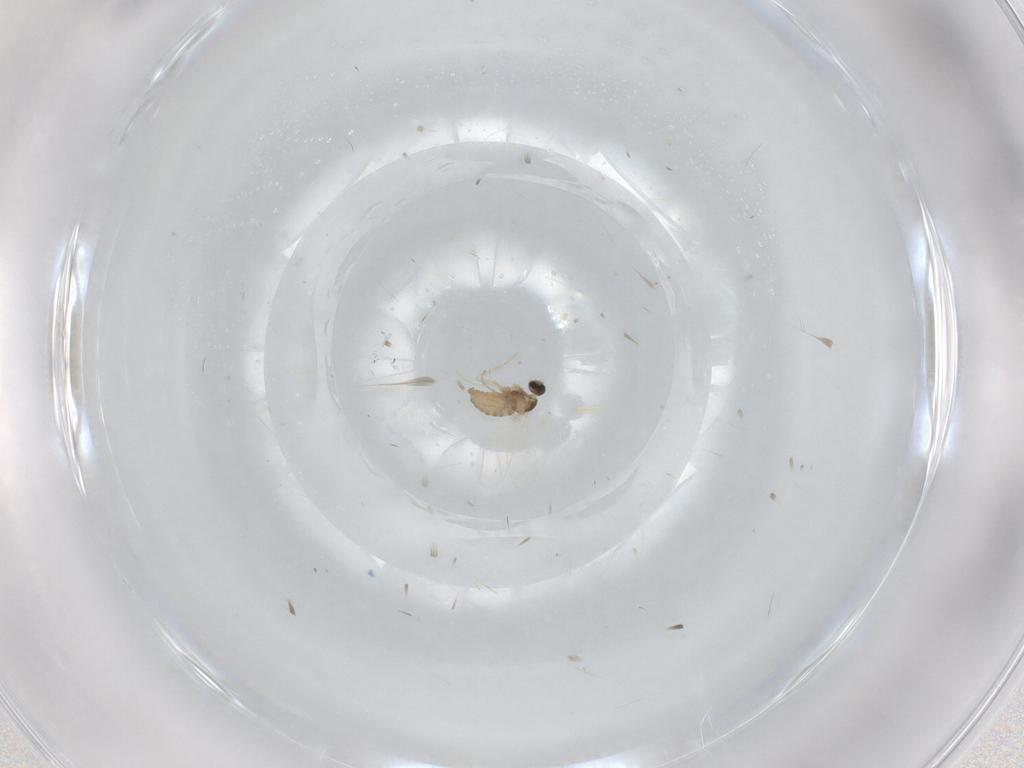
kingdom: Animalia
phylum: Arthropoda
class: Insecta
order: Diptera
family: Cecidomyiidae
